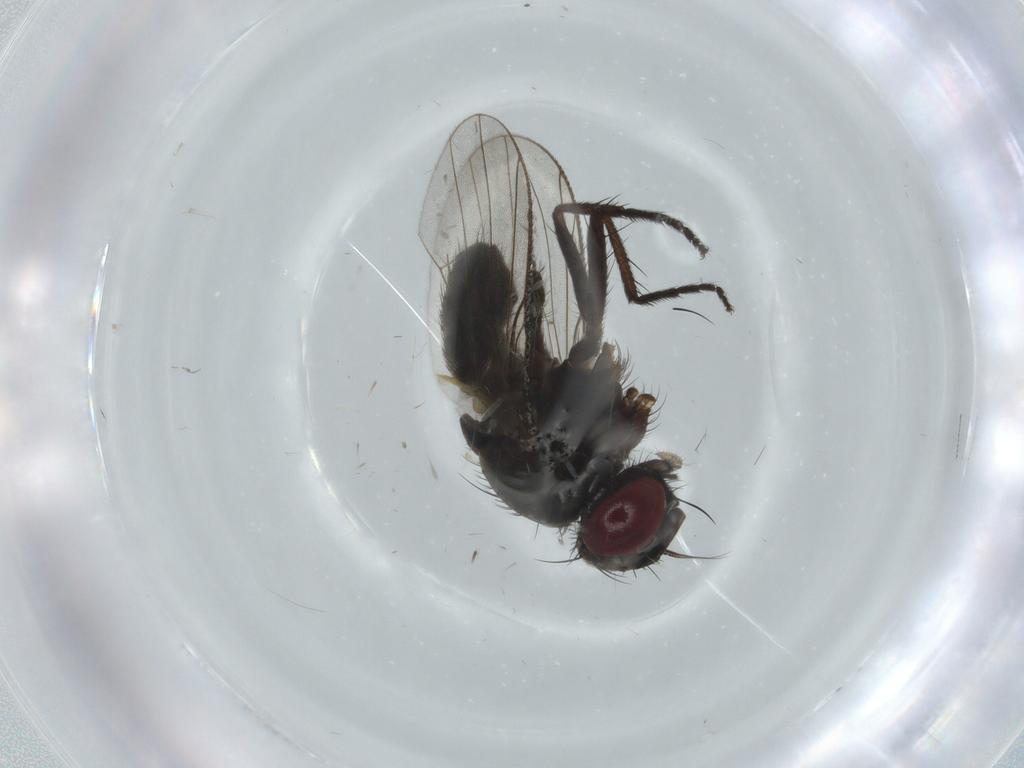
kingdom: Animalia
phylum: Arthropoda
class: Insecta
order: Diptera
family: Muscidae
